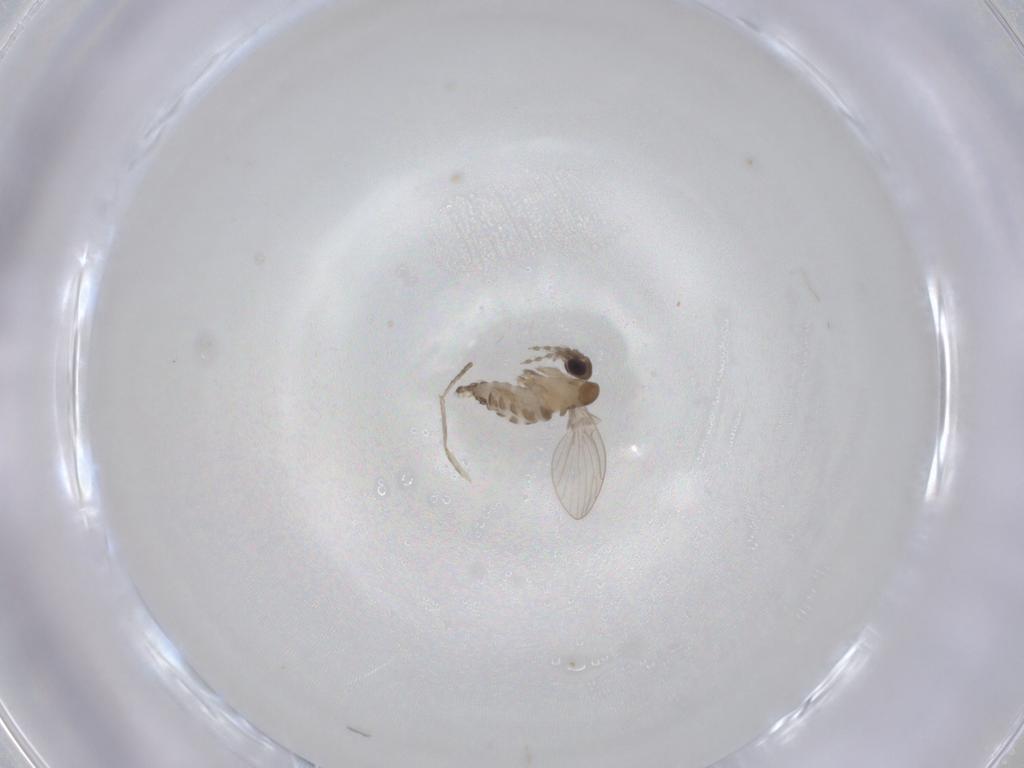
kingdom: Animalia
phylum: Arthropoda
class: Insecta
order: Diptera
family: Psychodidae
